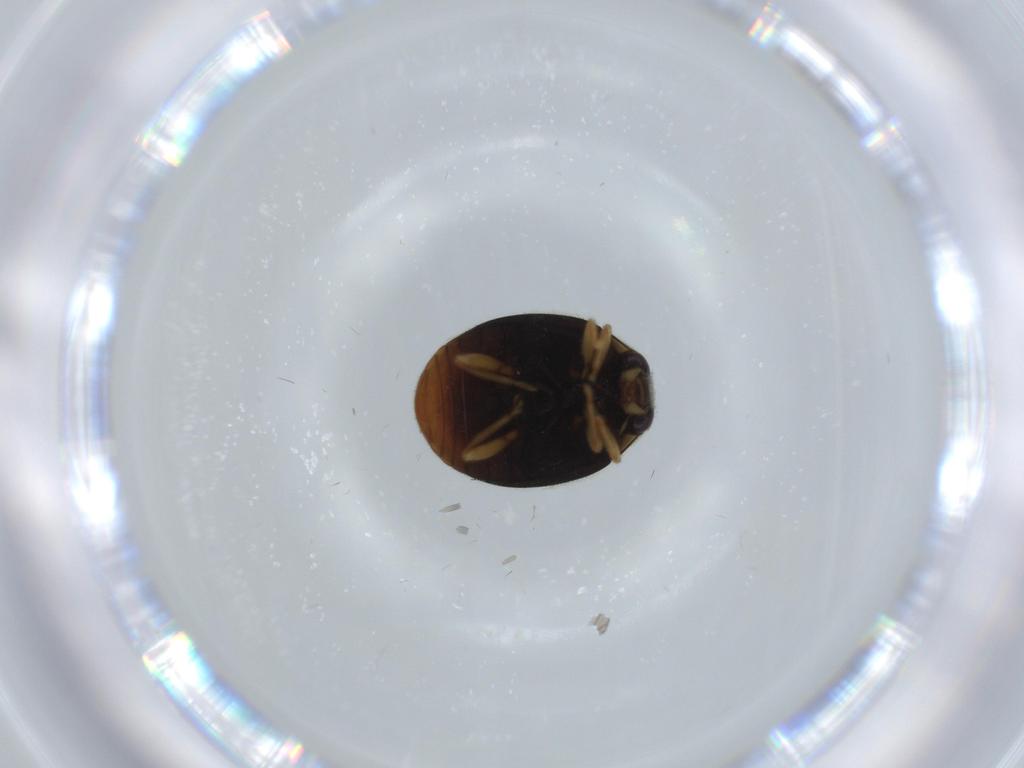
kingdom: Animalia
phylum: Arthropoda
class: Insecta
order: Coleoptera
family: Coccinellidae
